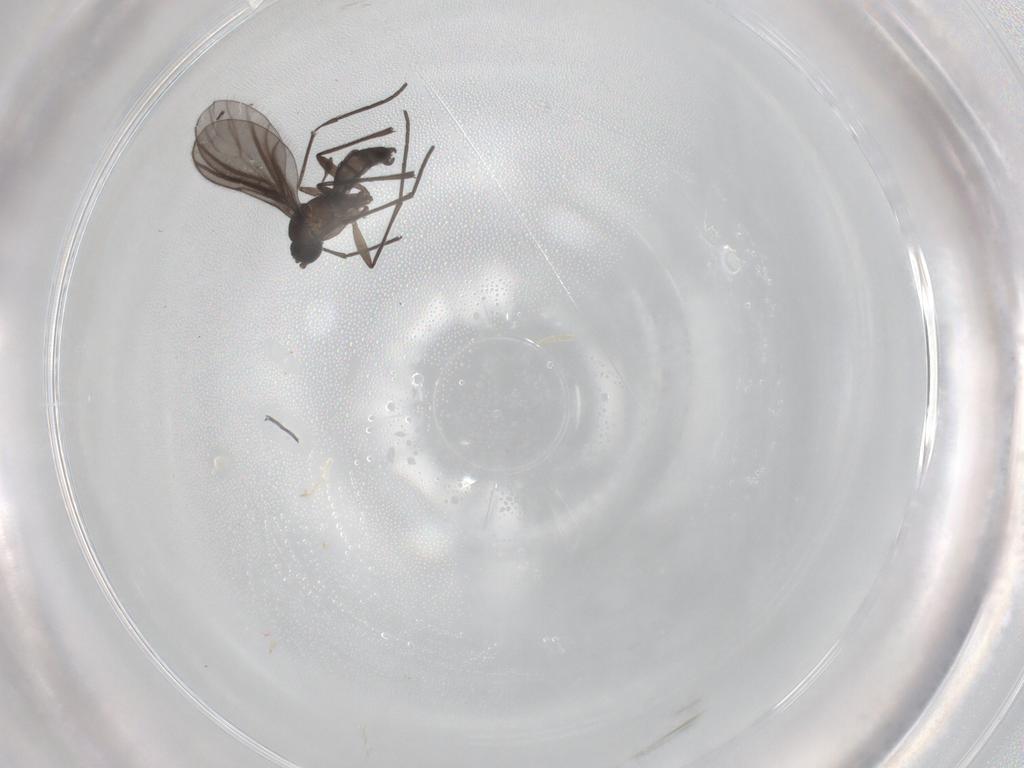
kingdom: Animalia
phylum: Arthropoda
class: Insecta
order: Diptera
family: Sciaridae
